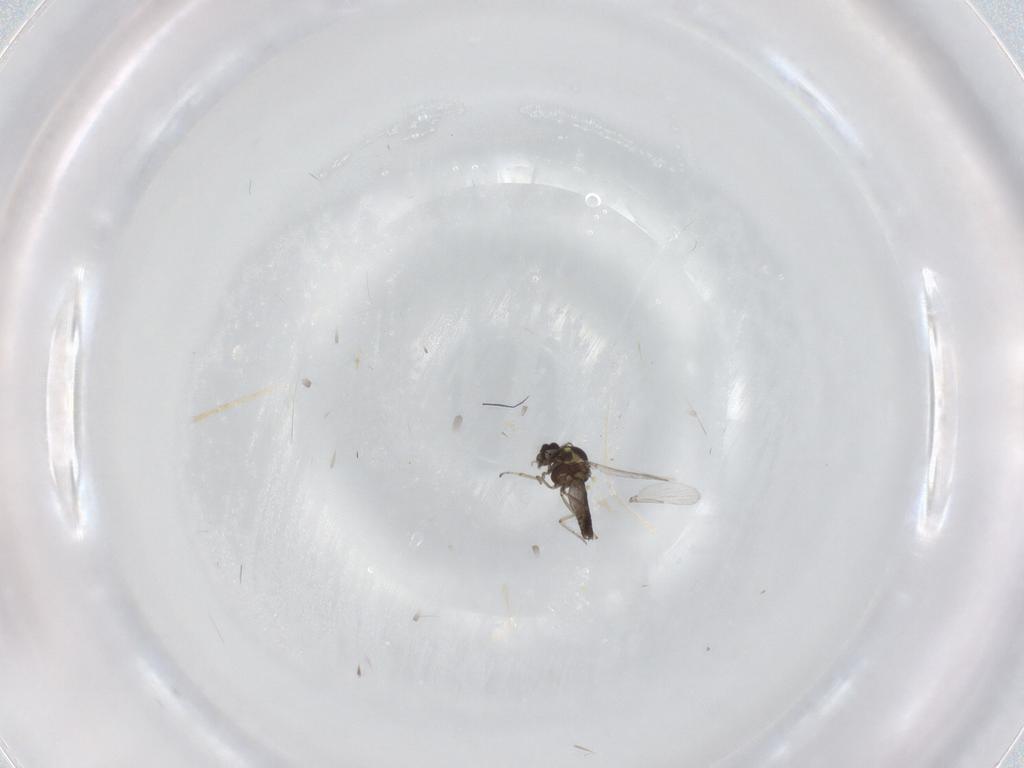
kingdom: Animalia
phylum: Arthropoda
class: Insecta
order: Diptera
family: Ceratopogonidae
